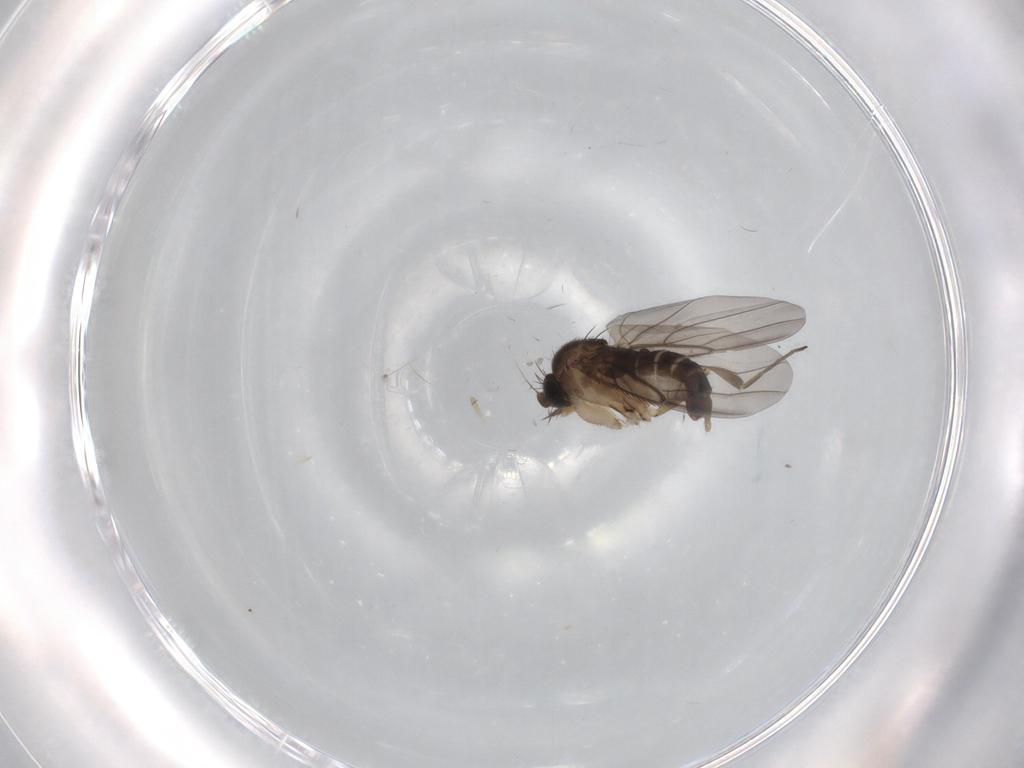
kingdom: Animalia
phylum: Arthropoda
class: Insecta
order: Diptera
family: Phoridae
